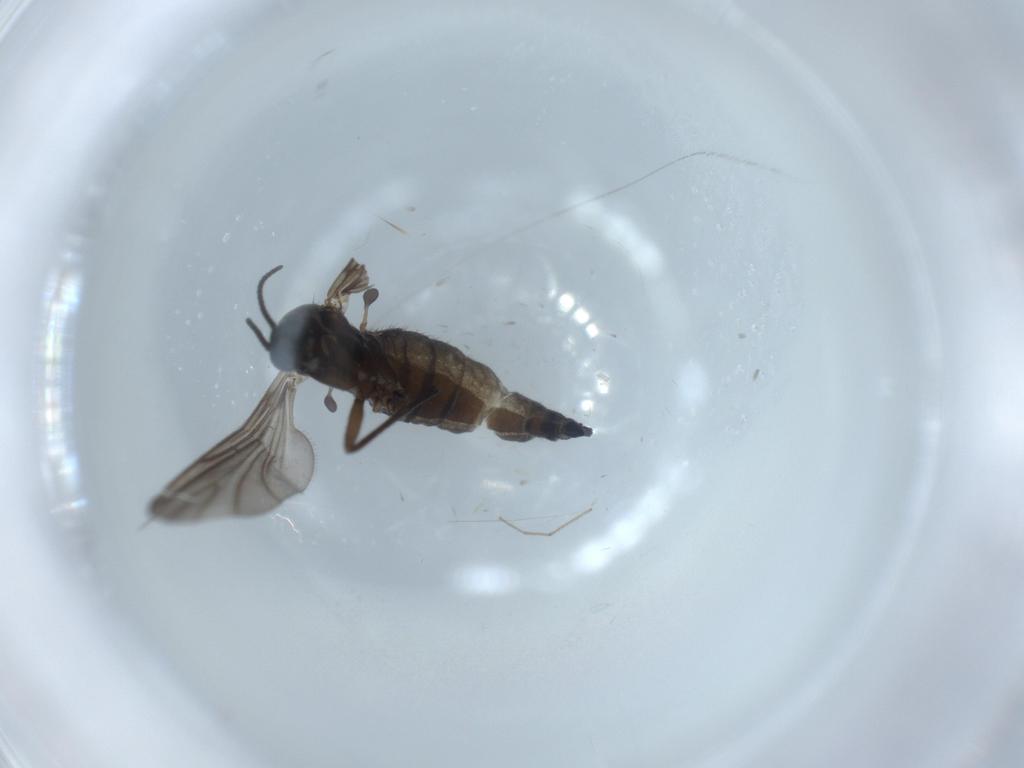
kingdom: Animalia
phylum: Arthropoda
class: Insecta
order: Diptera
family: Sciaridae
